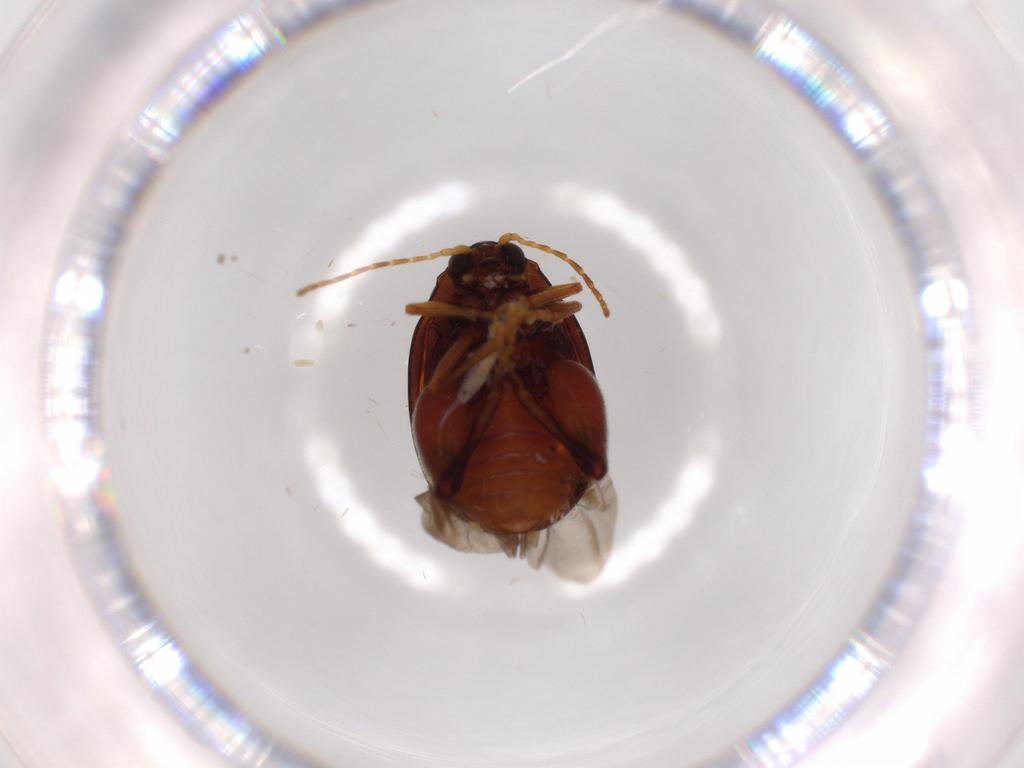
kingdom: Animalia
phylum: Arthropoda
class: Insecta
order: Coleoptera
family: Chrysomelidae
